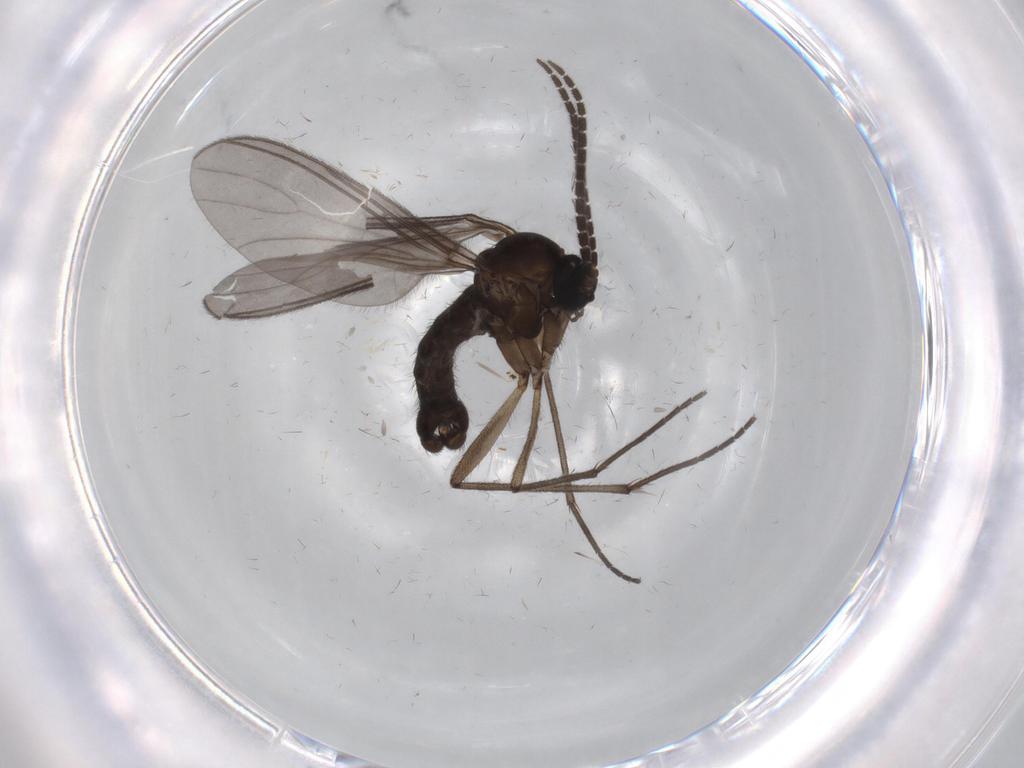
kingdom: Animalia
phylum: Arthropoda
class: Insecta
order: Diptera
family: Sciaridae
